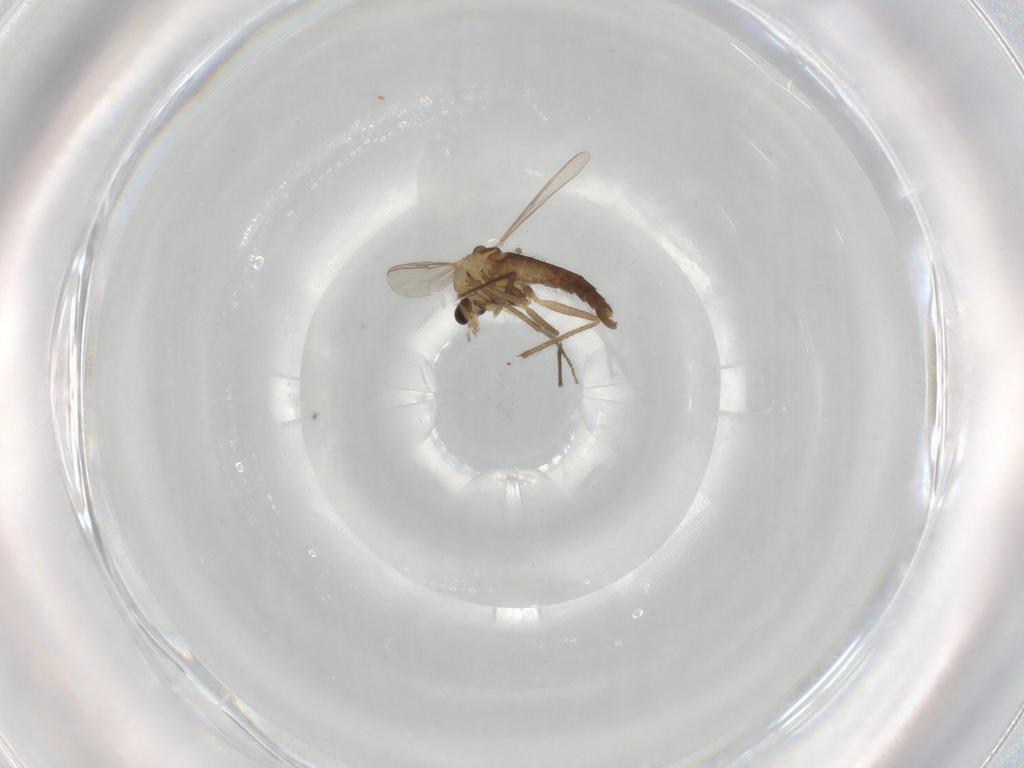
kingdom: Animalia
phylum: Arthropoda
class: Insecta
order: Diptera
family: Chironomidae
